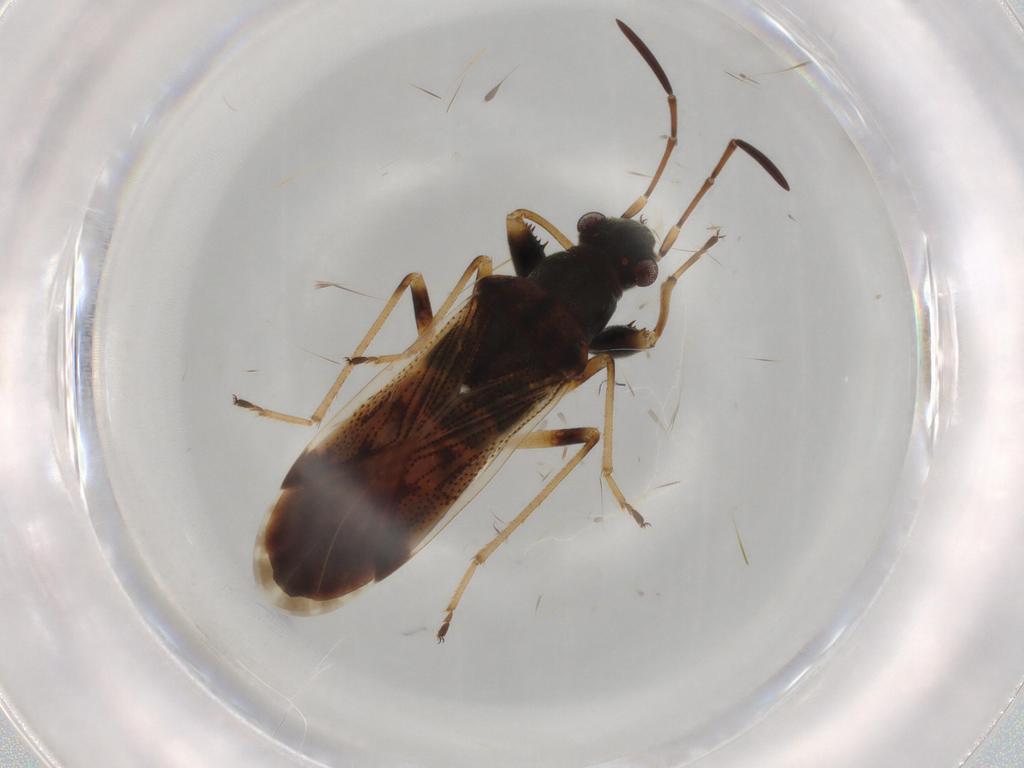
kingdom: Animalia
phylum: Arthropoda
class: Insecta
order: Hemiptera
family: Rhyparochromidae
